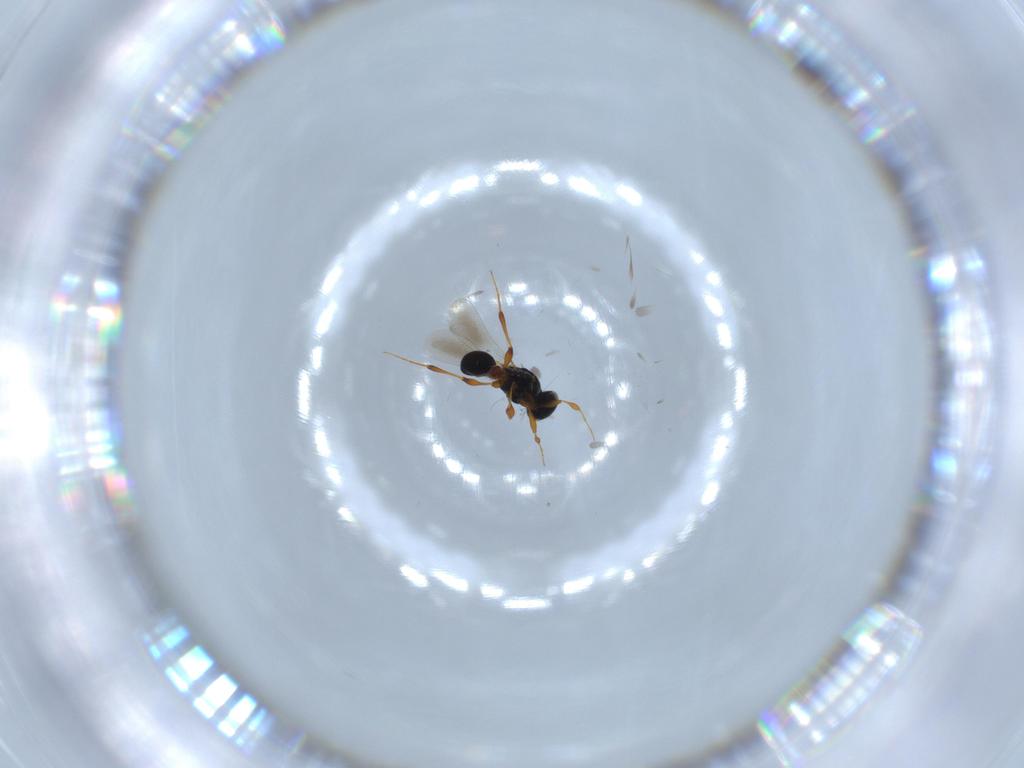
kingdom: Animalia
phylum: Arthropoda
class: Insecta
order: Hymenoptera
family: Platygastridae
